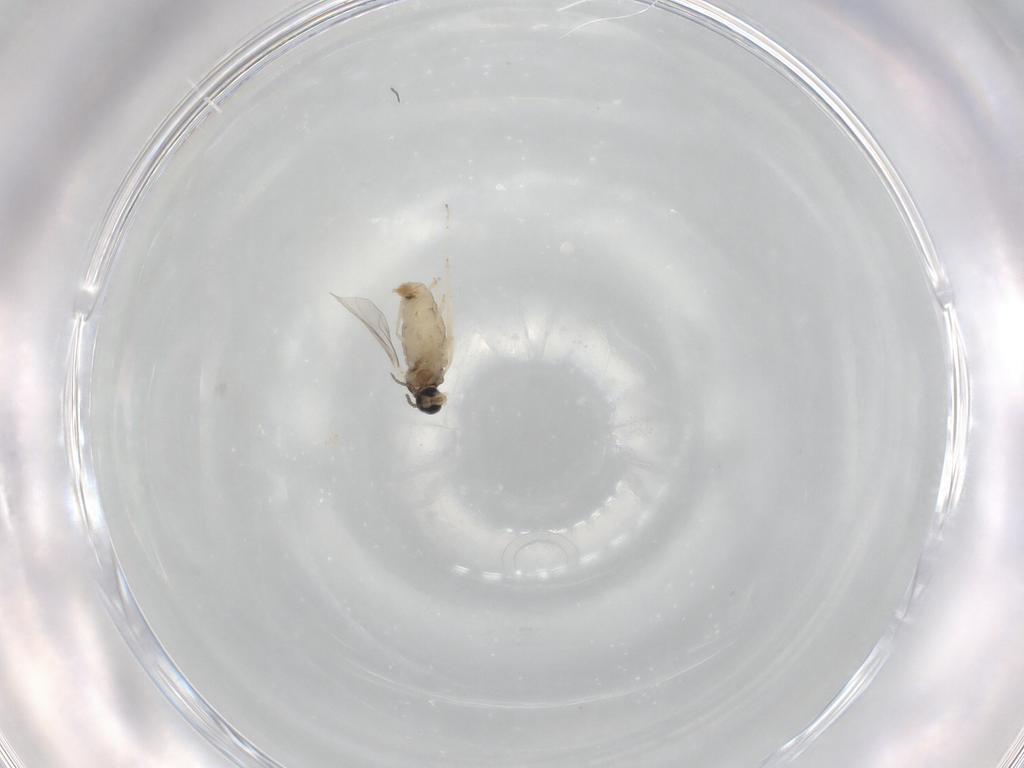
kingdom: Animalia
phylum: Arthropoda
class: Insecta
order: Diptera
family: Cecidomyiidae
